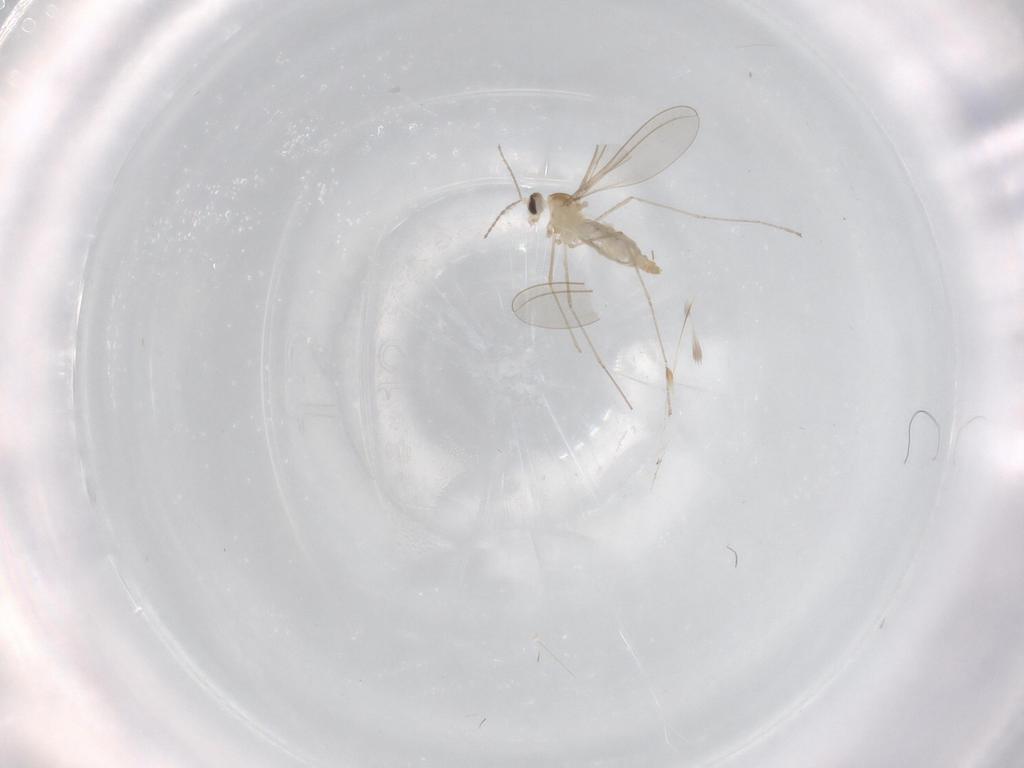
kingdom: Animalia
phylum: Arthropoda
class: Insecta
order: Diptera
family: Cecidomyiidae
